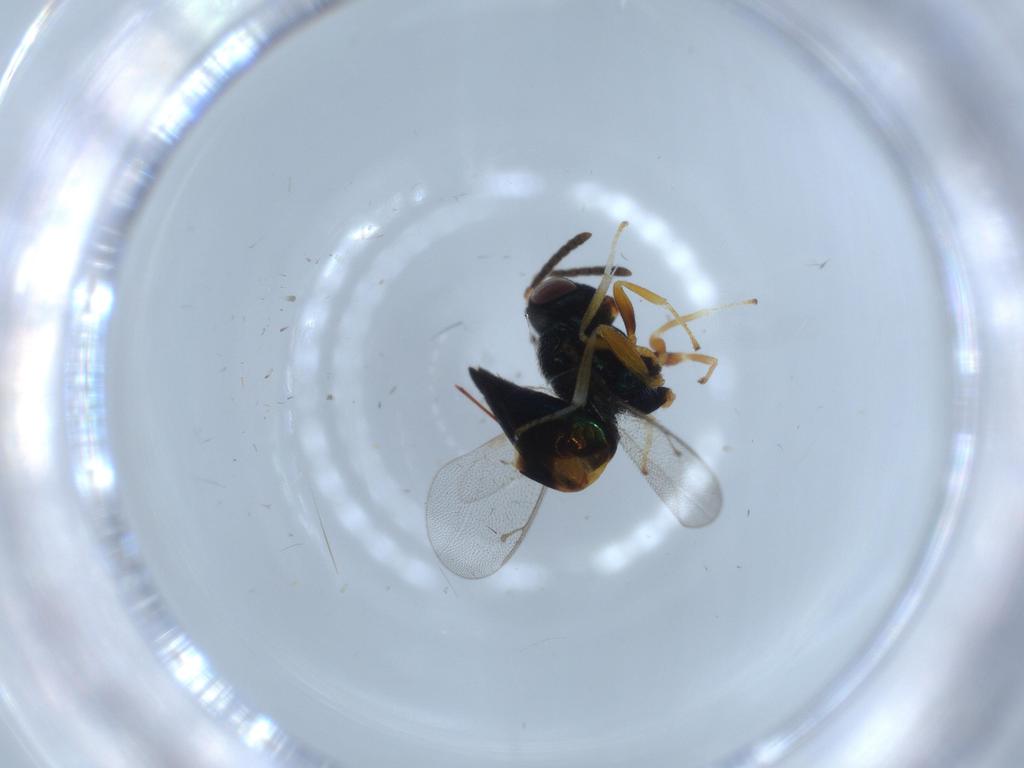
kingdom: Animalia
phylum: Arthropoda
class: Insecta
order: Hymenoptera
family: Pteromalidae
